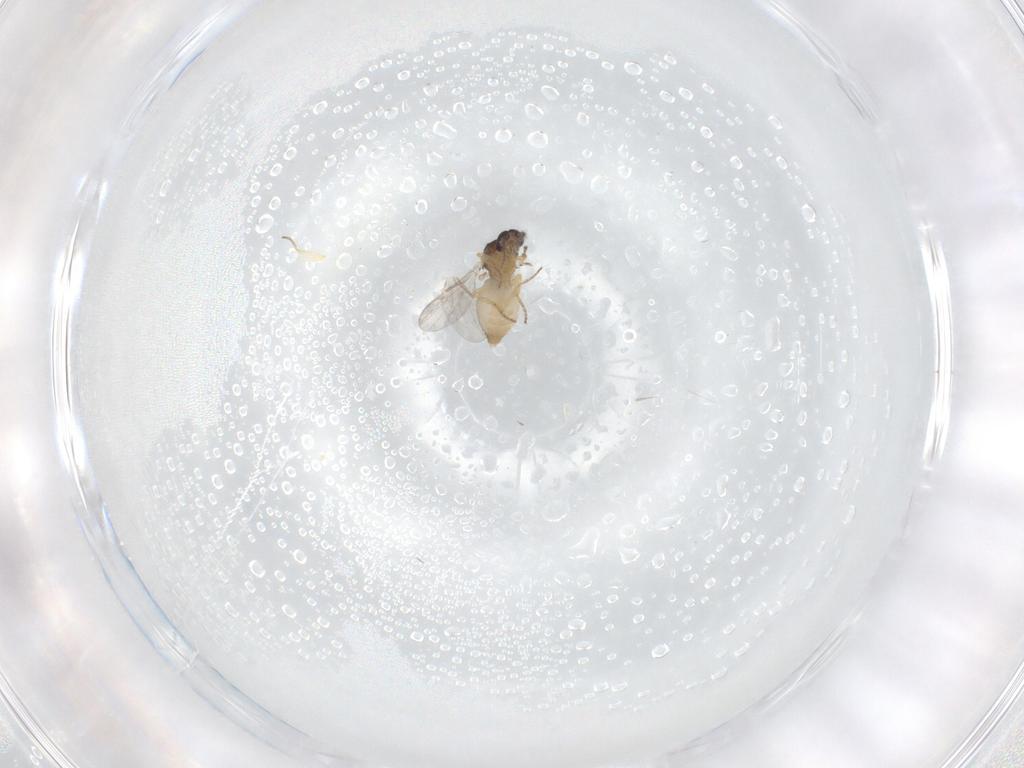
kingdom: Animalia
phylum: Arthropoda
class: Insecta
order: Diptera
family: Ceratopogonidae
